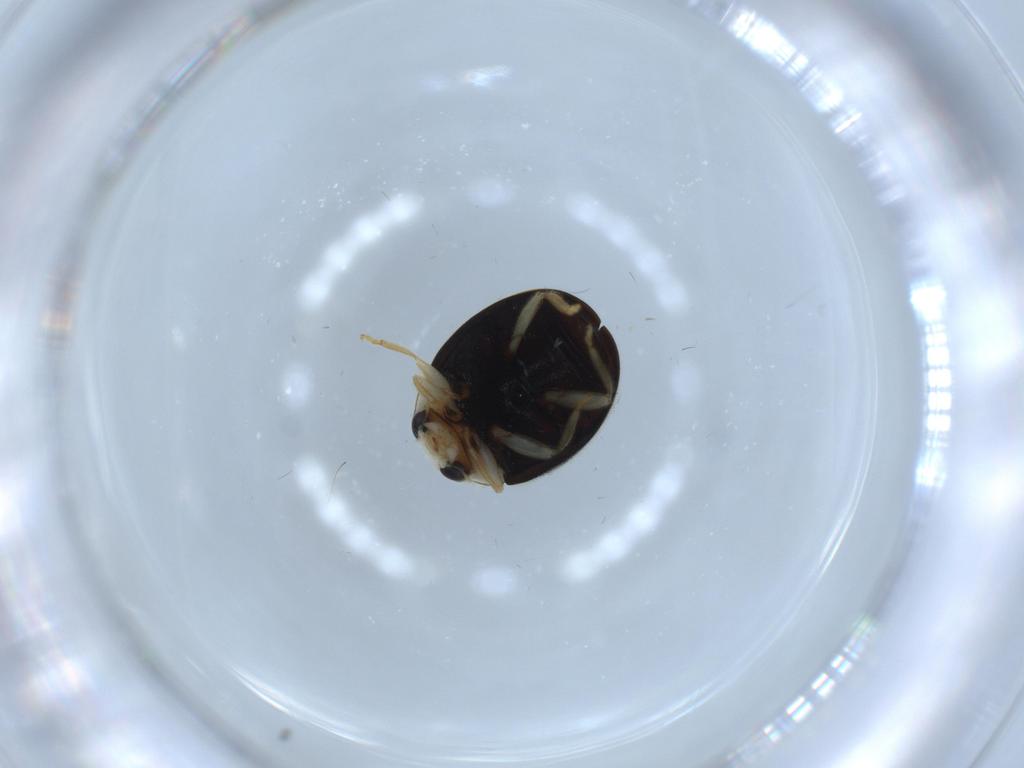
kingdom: Animalia
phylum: Arthropoda
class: Insecta
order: Coleoptera
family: Coccinellidae
